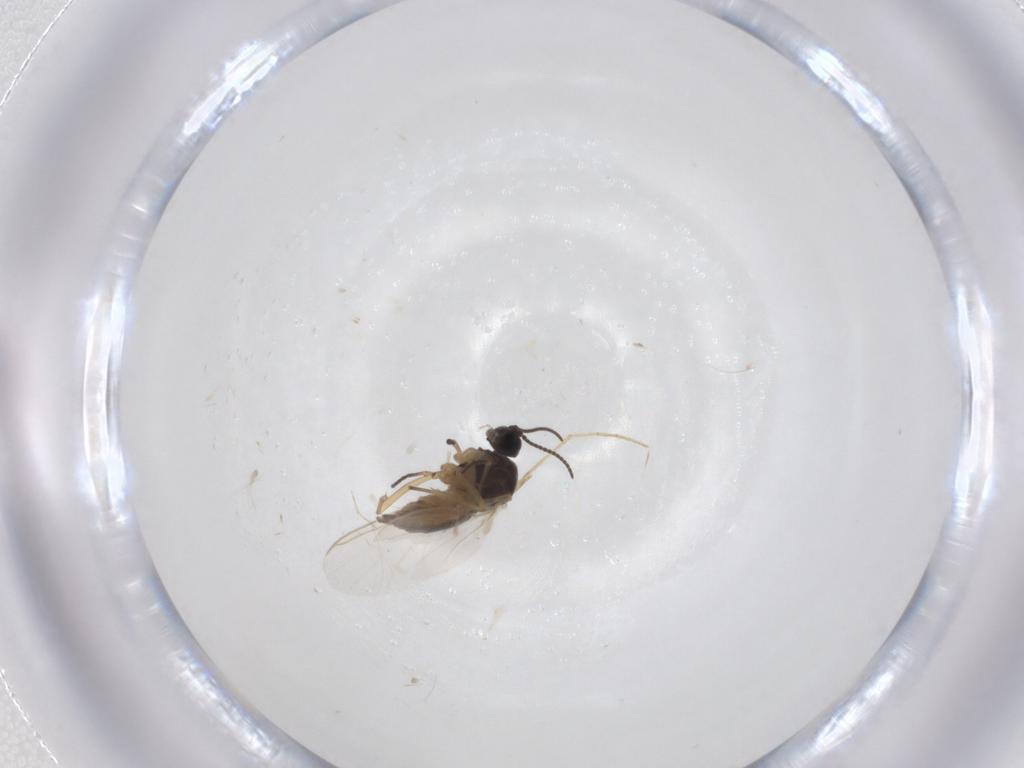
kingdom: Animalia
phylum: Arthropoda
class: Insecta
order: Diptera
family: Sciaridae
